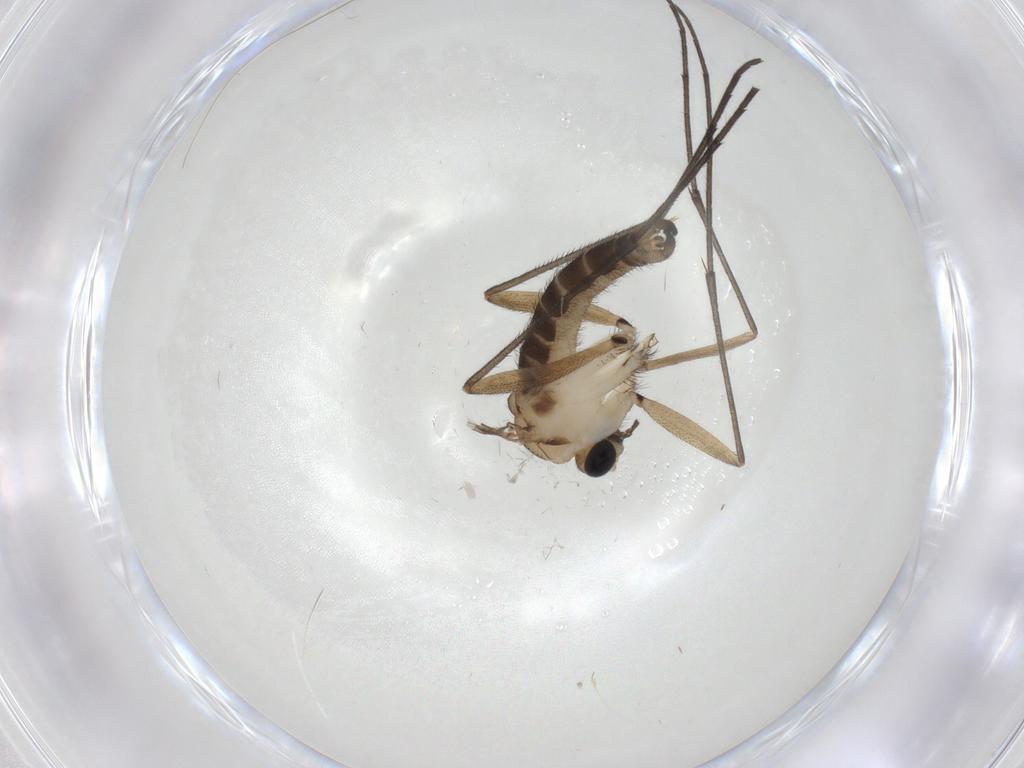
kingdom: Animalia
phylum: Arthropoda
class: Insecta
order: Diptera
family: Sciaridae
